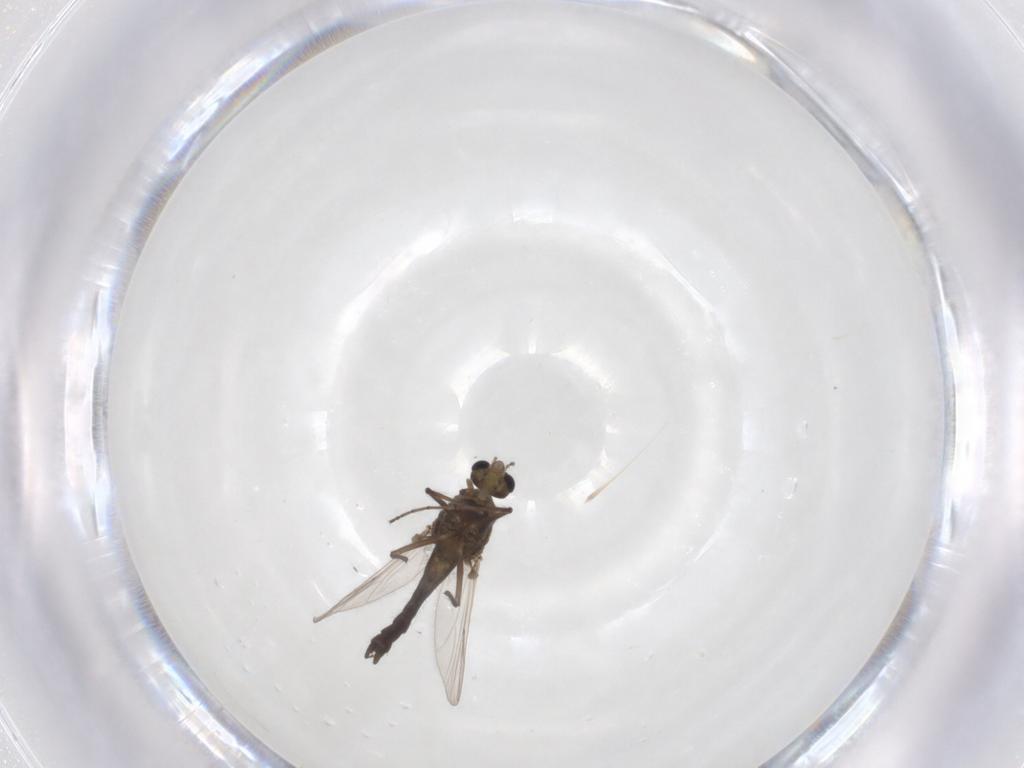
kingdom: Animalia
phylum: Arthropoda
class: Insecta
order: Diptera
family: Chironomidae
